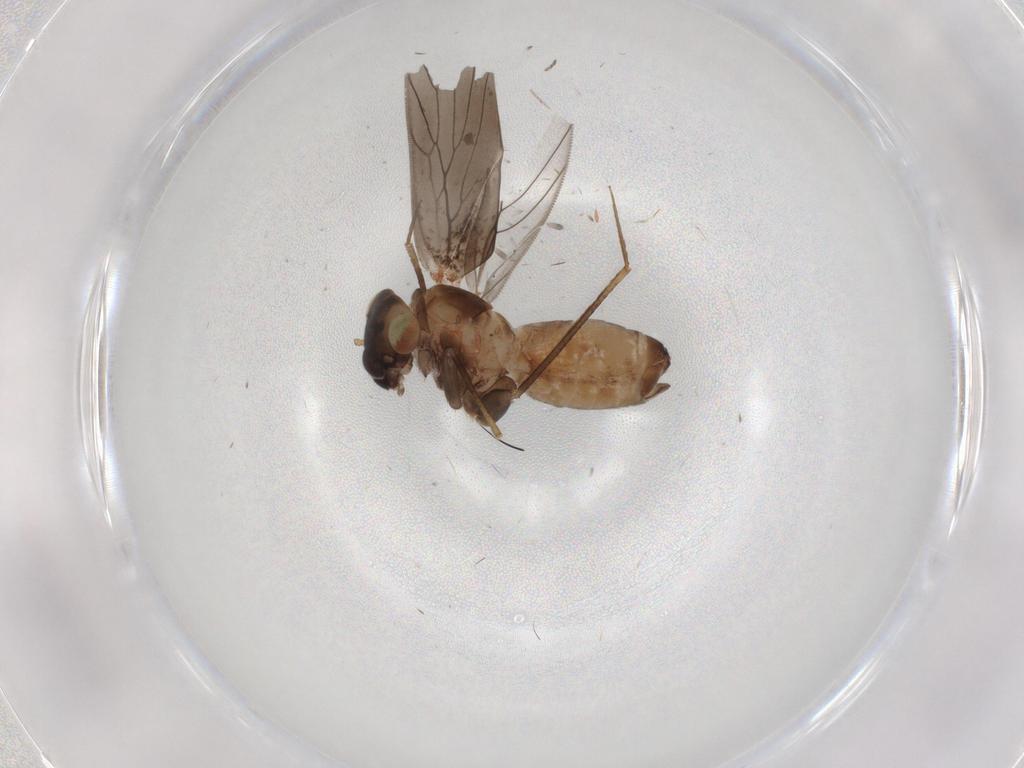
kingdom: Animalia
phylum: Arthropoda
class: Insecta
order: Psocodea
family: Lepidopsocidae
